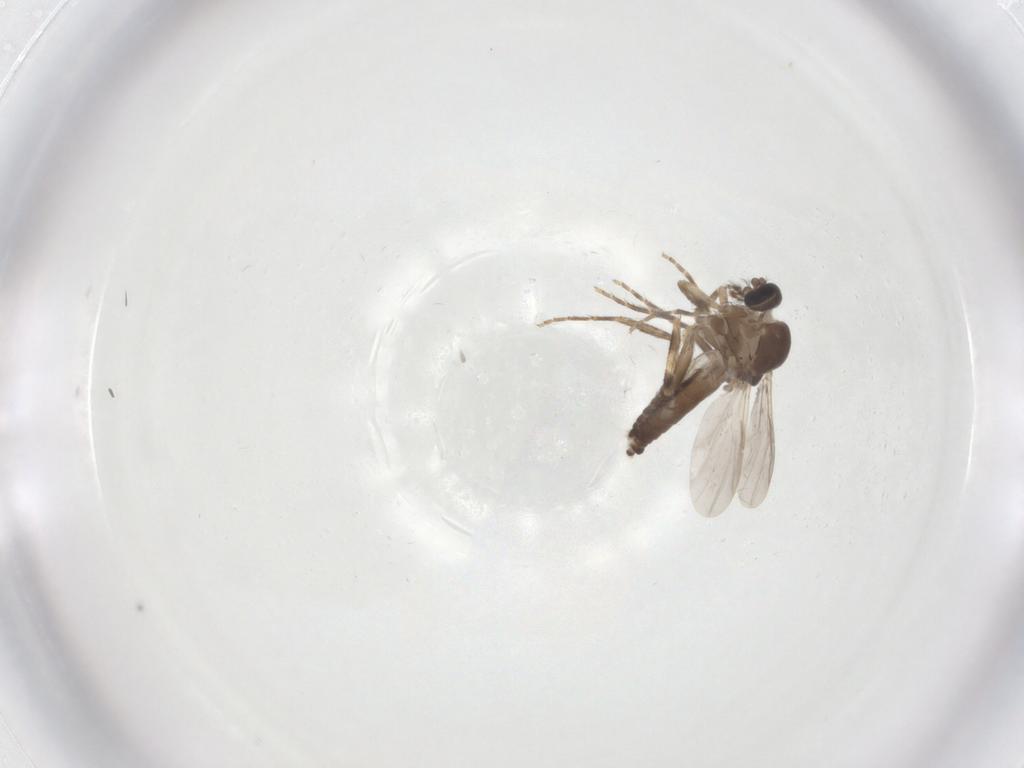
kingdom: Animalia
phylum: Arthropoda
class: Insecta
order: Diptera
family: Ceratopogonidae
